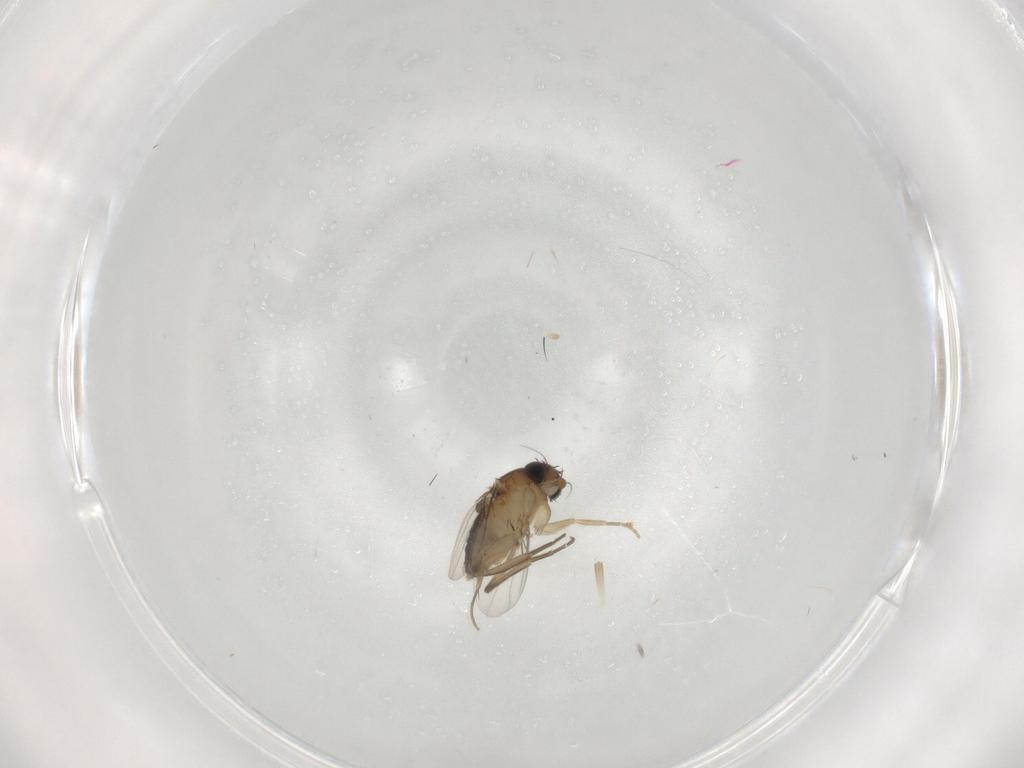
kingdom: Animalia
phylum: Arthropoda
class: Insecta
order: Diptera
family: Phoridae
